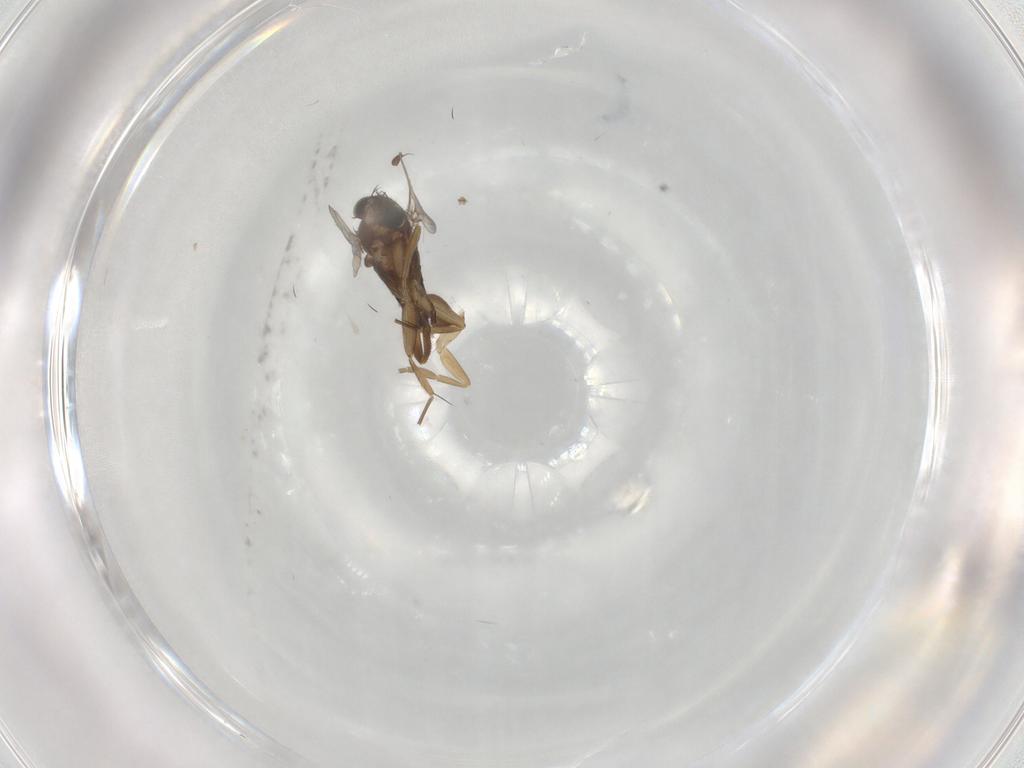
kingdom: Animalia
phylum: Arthropoda
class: Insecta
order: Diptera
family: Phoridae
